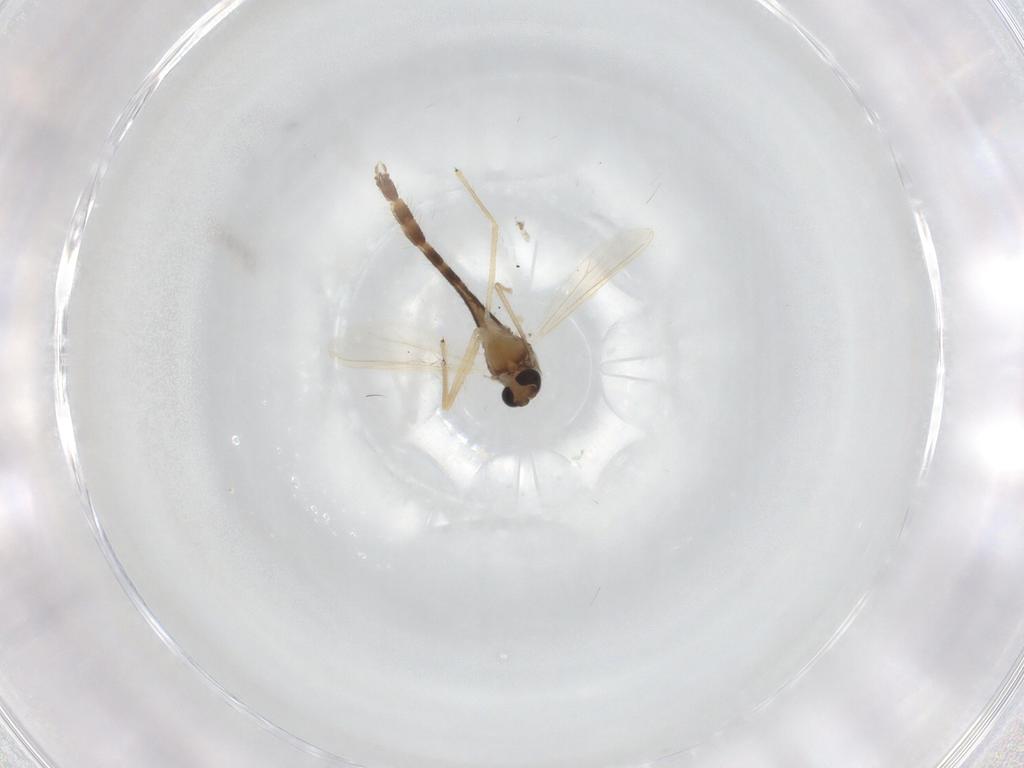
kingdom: Animalia
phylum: Arthropoda
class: Insecta
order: Diptera
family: Chironomidae
